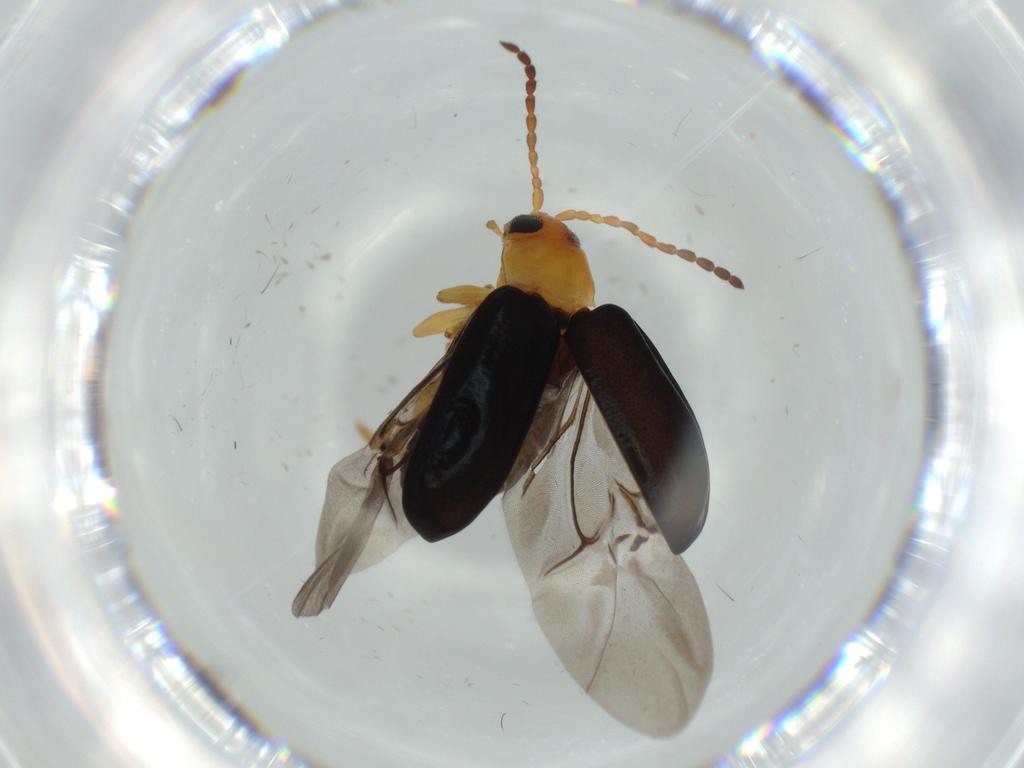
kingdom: Animalia
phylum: Arthropoda
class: Insecta
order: Coleoptera
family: Chrysomelidae
